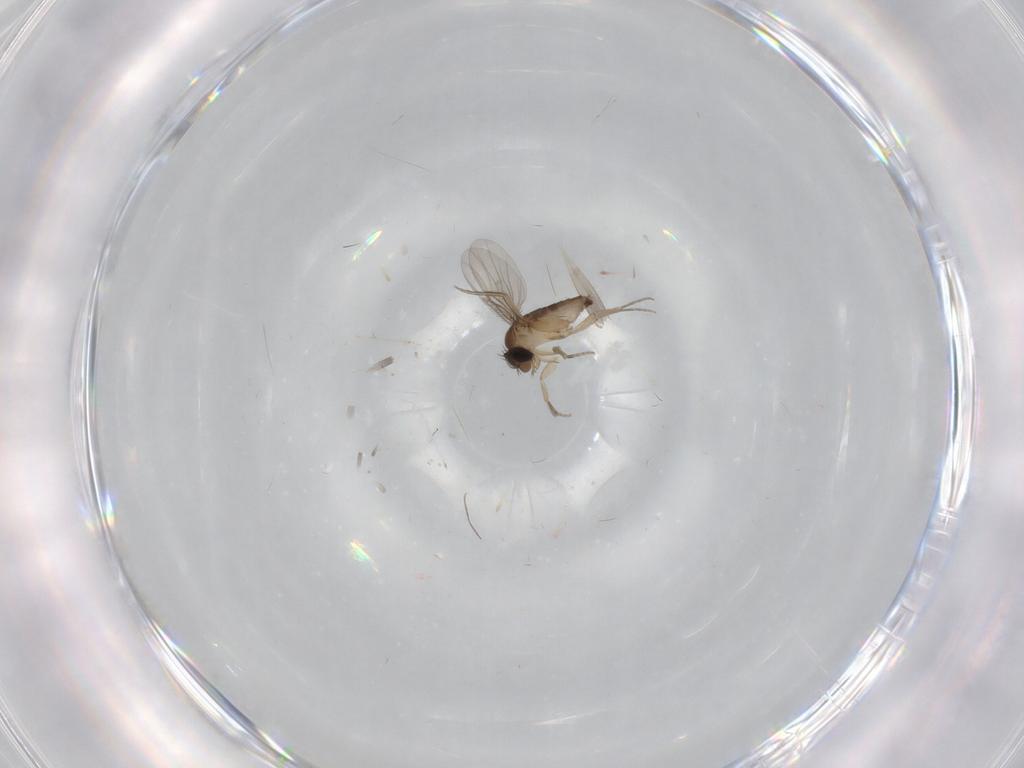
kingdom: Animalia
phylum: Arthropoda
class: Insecta
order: Diptera
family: Phoridae
